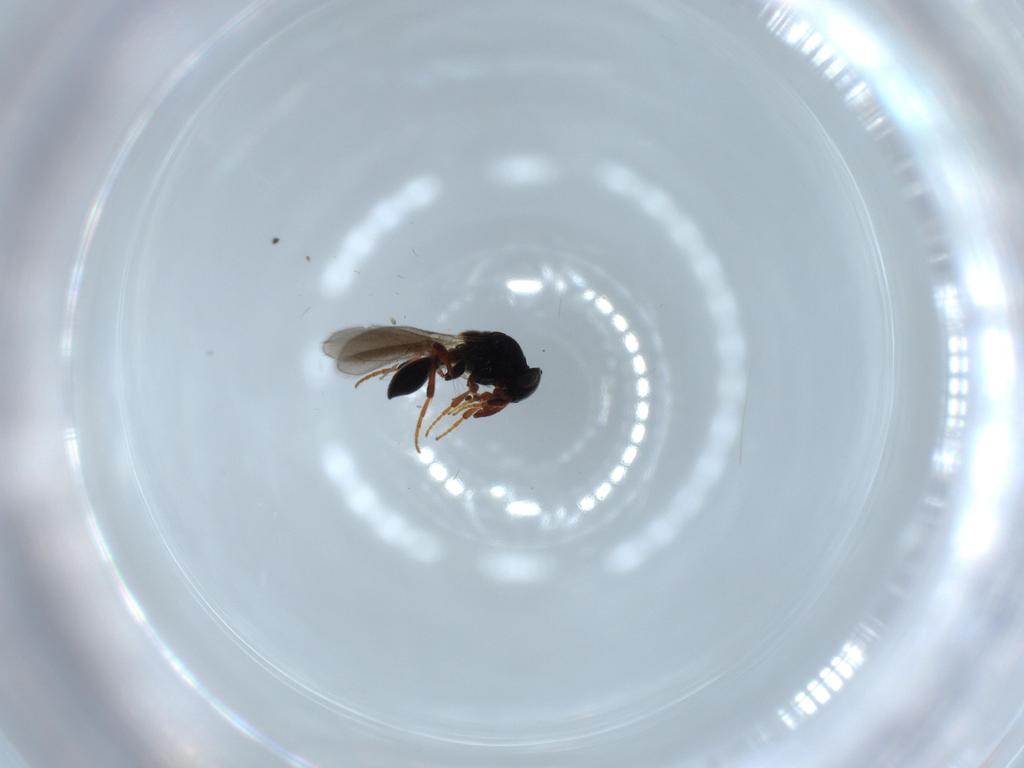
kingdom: Animalia
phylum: Arthropoda
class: Insecta
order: Hymenoptera
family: Platygastridae
